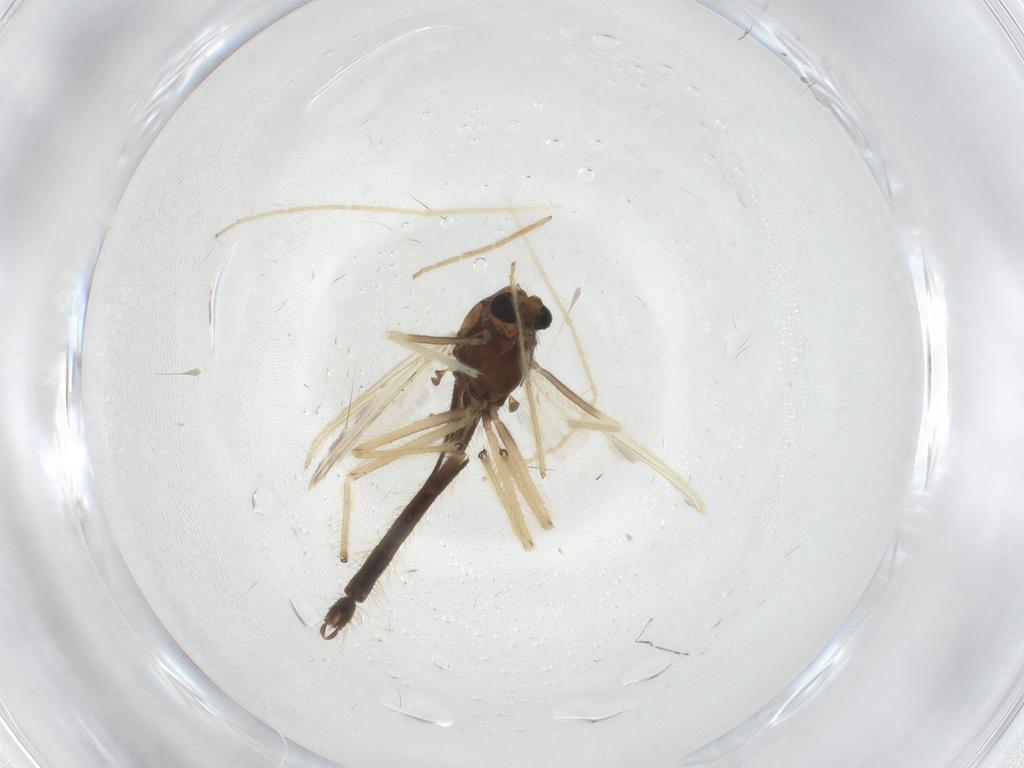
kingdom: Animalia
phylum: Arthropoda
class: Insecta
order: Diptera
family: Chironomidae
